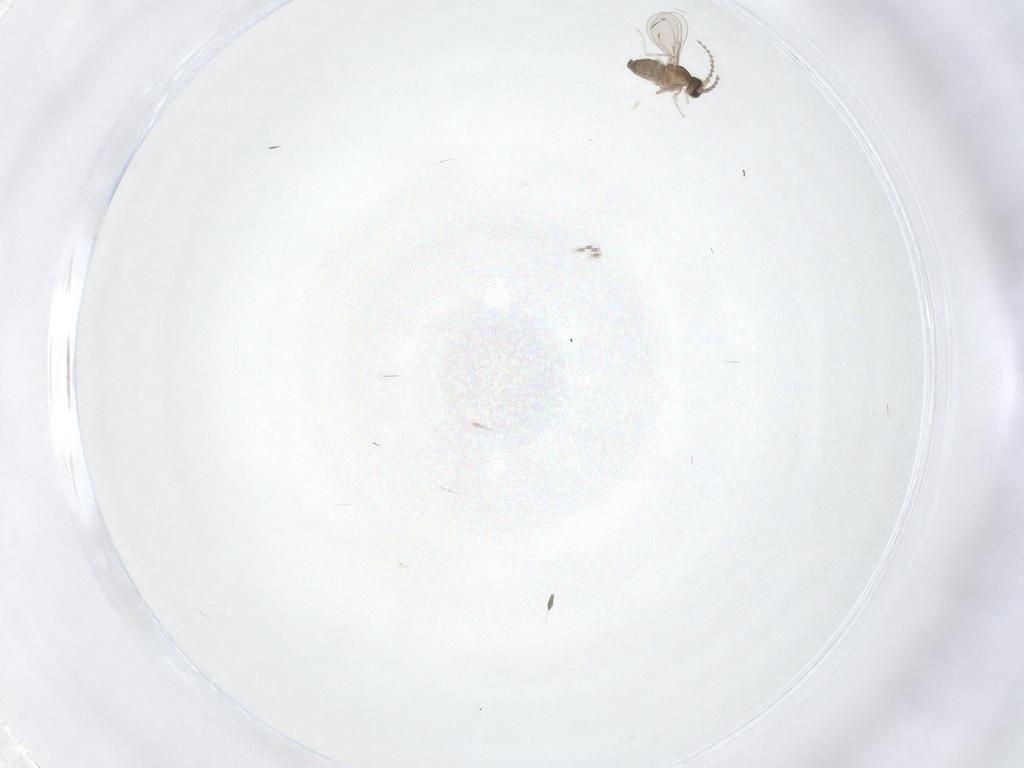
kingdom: Animalia
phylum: Arthropoda
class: Insecta
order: Diptera
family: Cecidomyiidae
